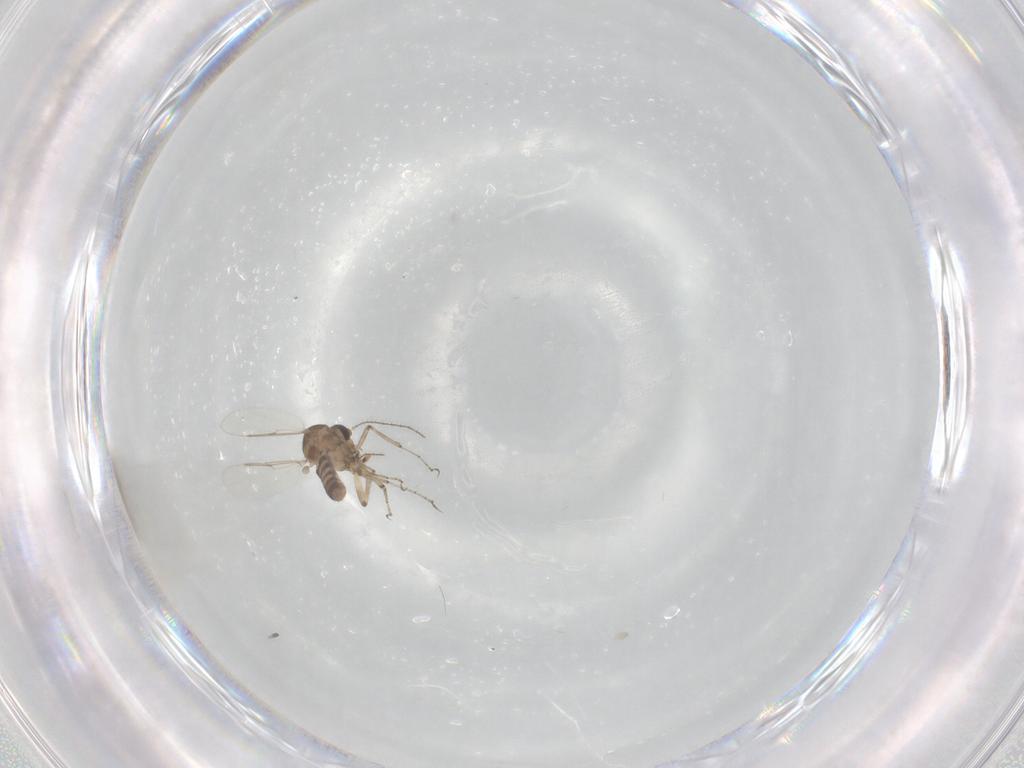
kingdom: Animalia
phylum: Arthropoda
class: Insecta
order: Diptera
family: Ceratopogonidae
